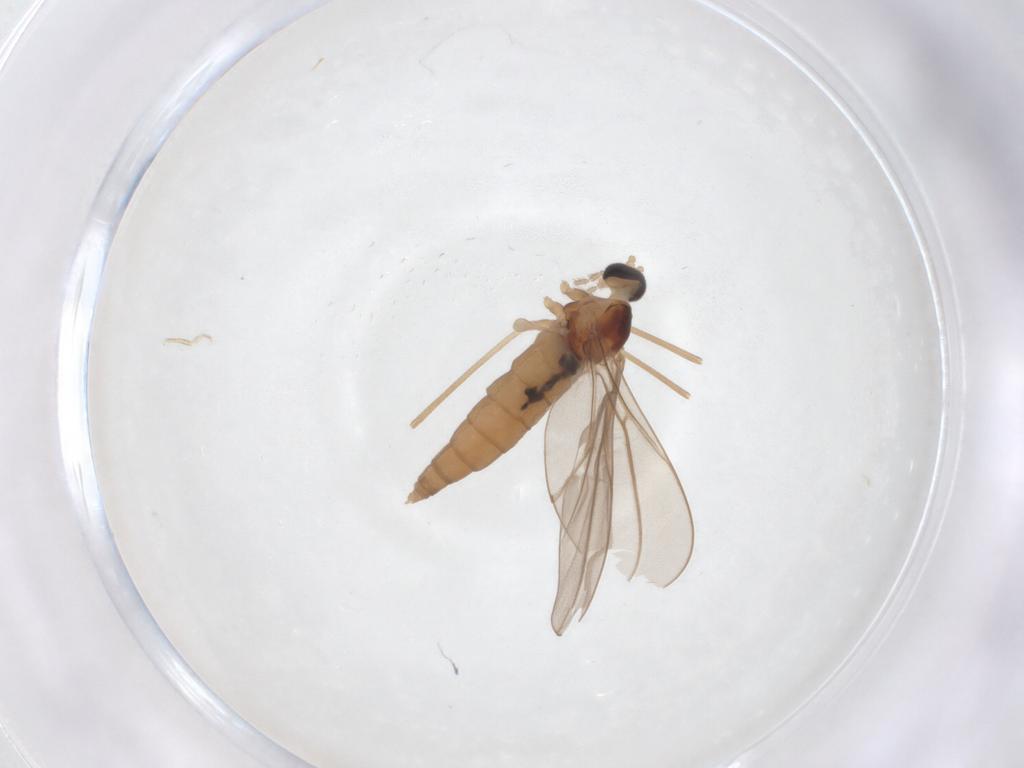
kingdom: Animalia
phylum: Arthropoda
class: Insecta
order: Diptera
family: Cecidomyiidae
